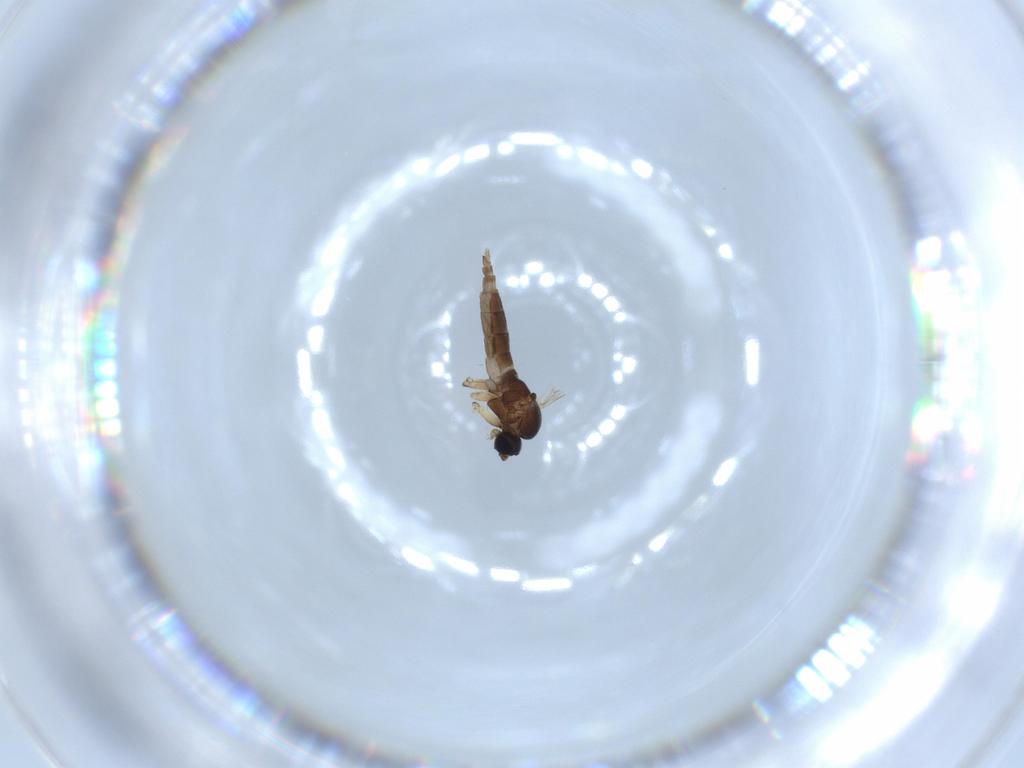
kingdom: Animalia
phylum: Arthropoda
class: Insecta
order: Diptera
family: Sciaridae
